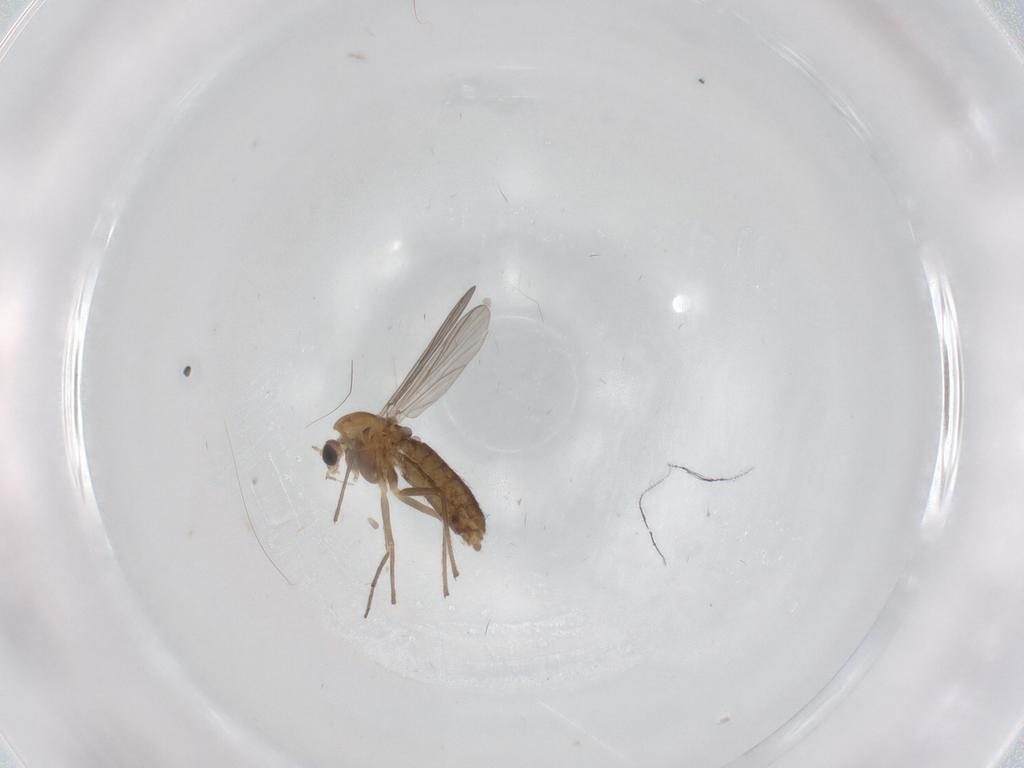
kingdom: Animalia
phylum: Arthropoda
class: Insecta
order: Diptera
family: Chironomidae
